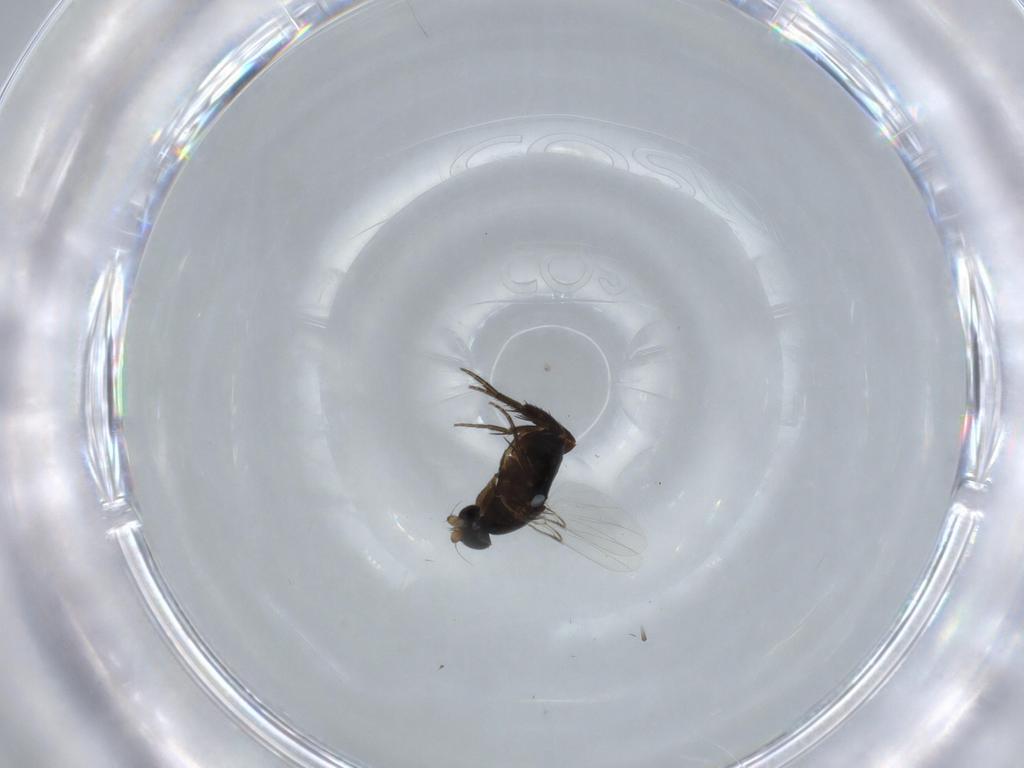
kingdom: Animalia
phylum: Arthropoda
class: Insecta
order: Diptera
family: Phoridae
